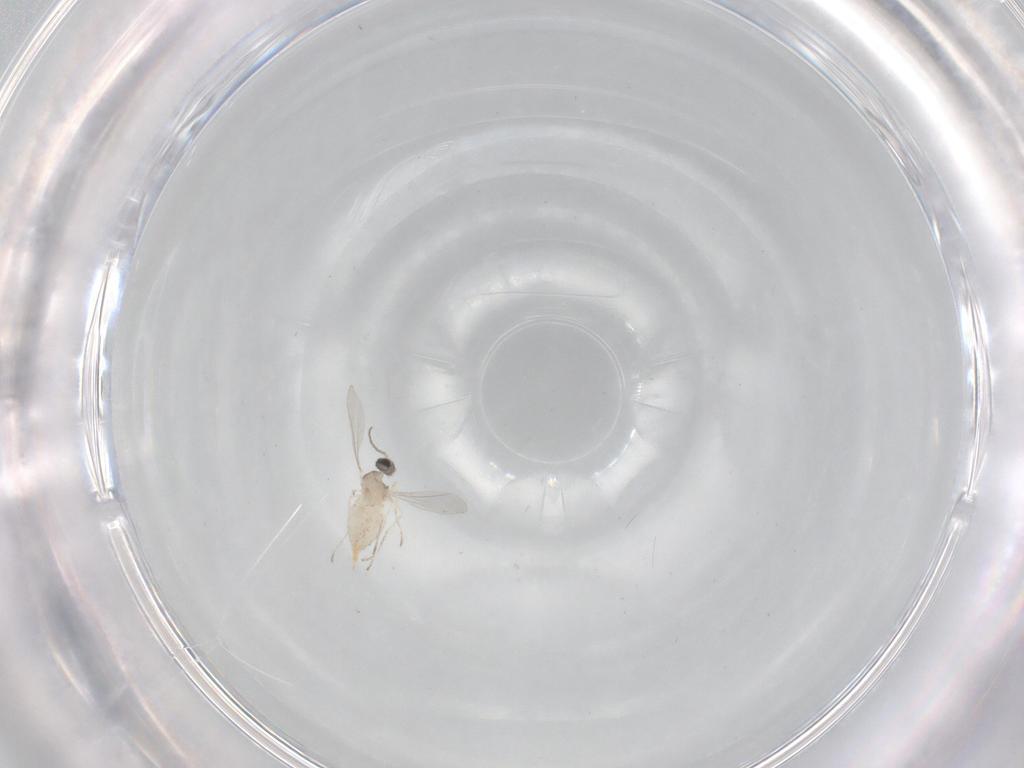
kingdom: Animalia
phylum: Arthropoda
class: Insecta
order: Diptera
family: Cecidomyiidae
